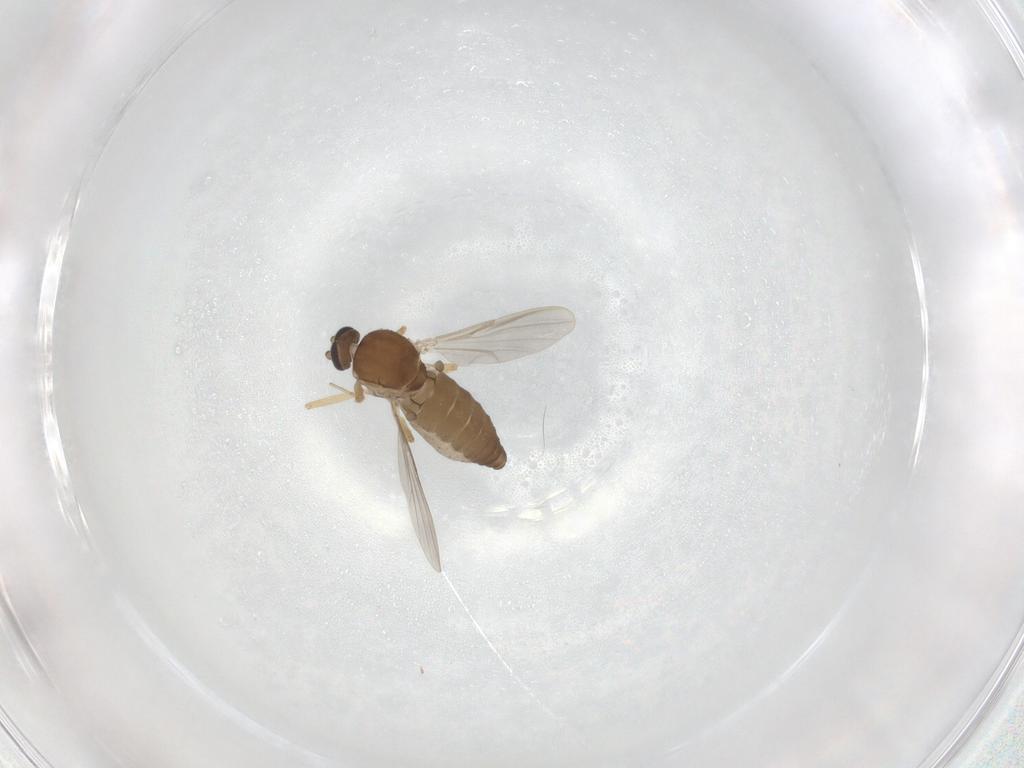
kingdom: Animalia
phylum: Arthropoda
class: Insecta
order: Diptera
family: Ceratopogonidae
